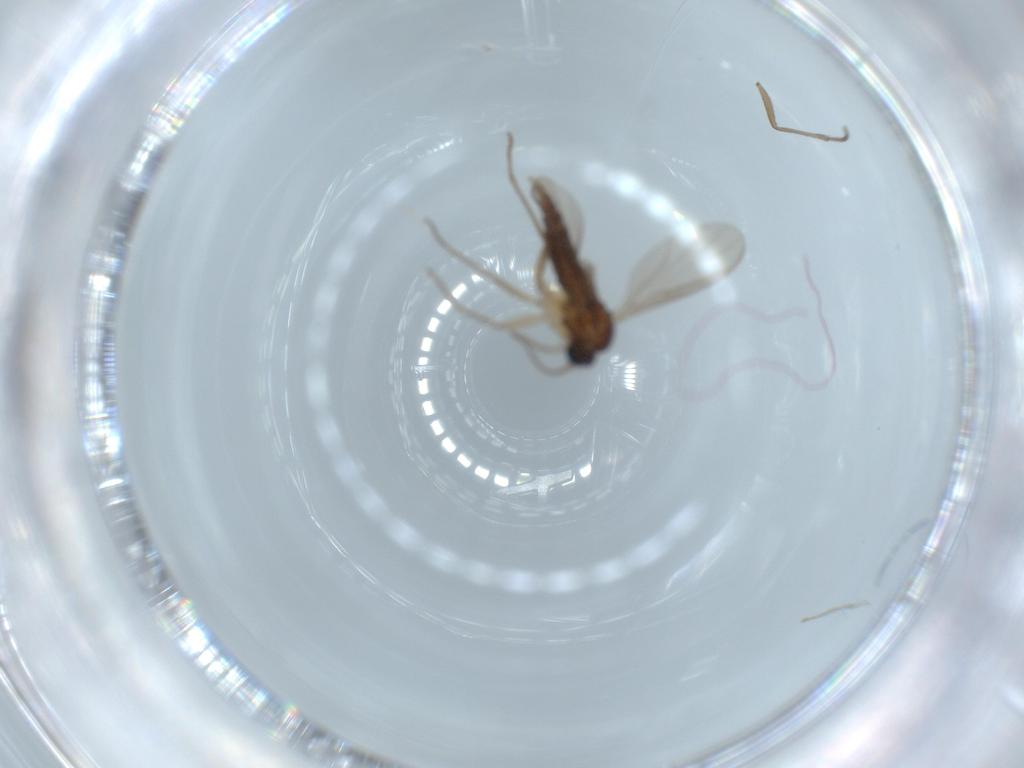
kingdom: Animalia
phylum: Arthropoda
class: Insecta
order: Diptera
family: Sciaridae
